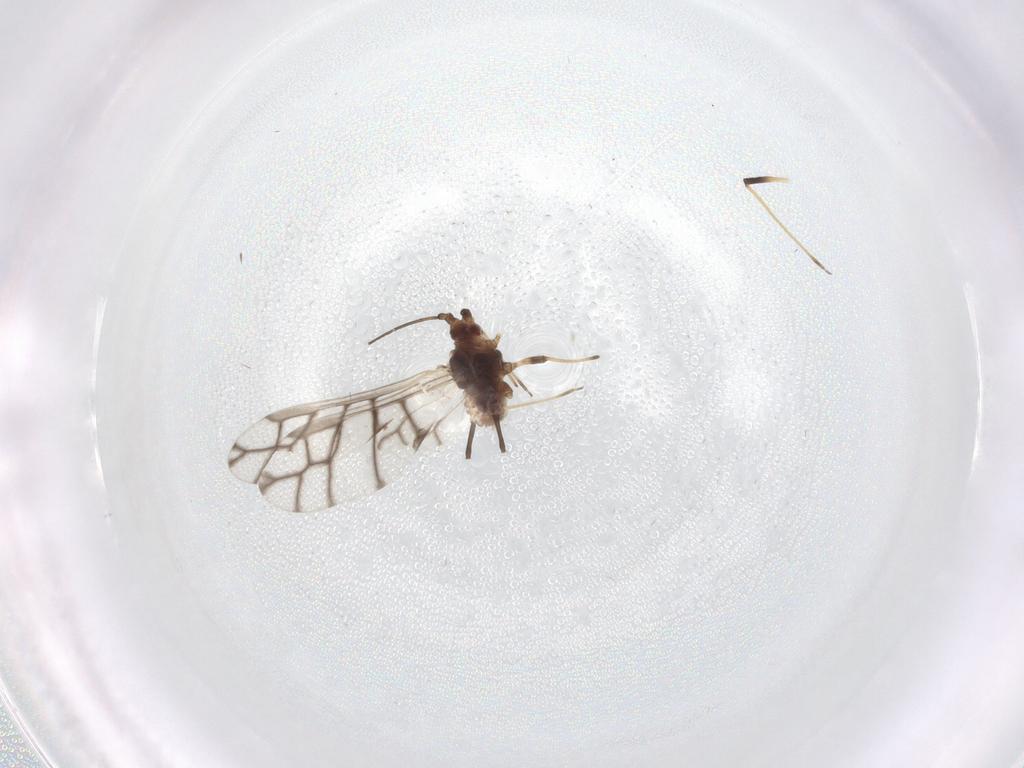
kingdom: Animalia
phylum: Arthropoda
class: Insecta
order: Hemiptera
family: Aphididae
